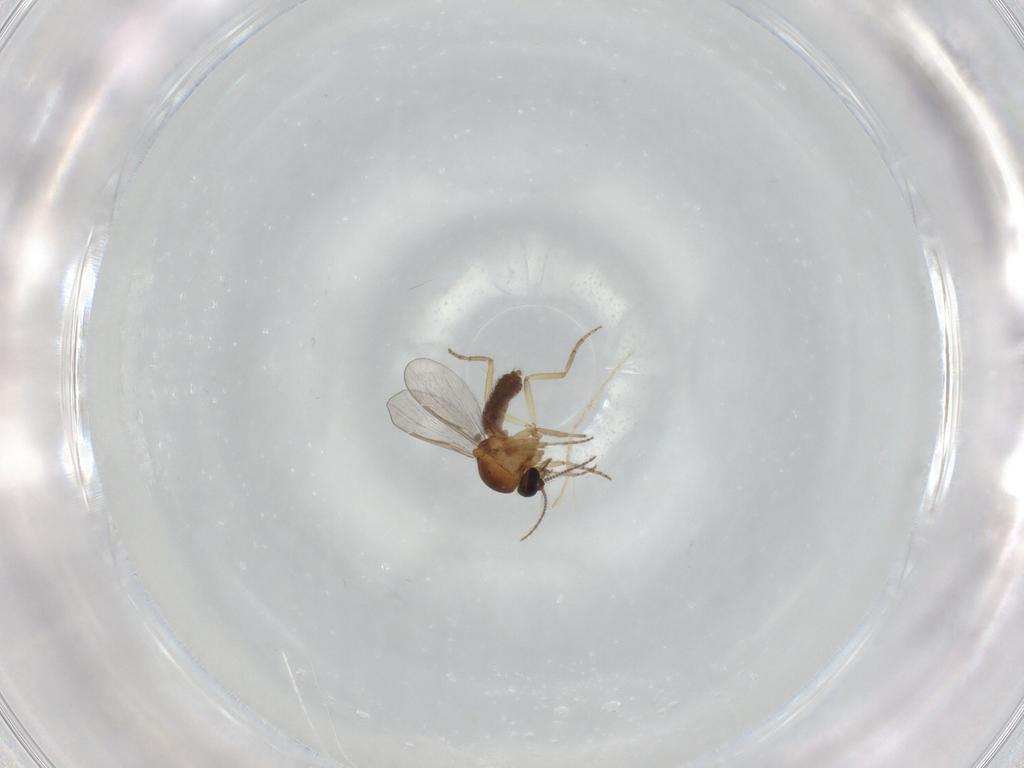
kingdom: Animalia
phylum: Arthropoda
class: Insecta
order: Diptera
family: Ceratopogonidae
